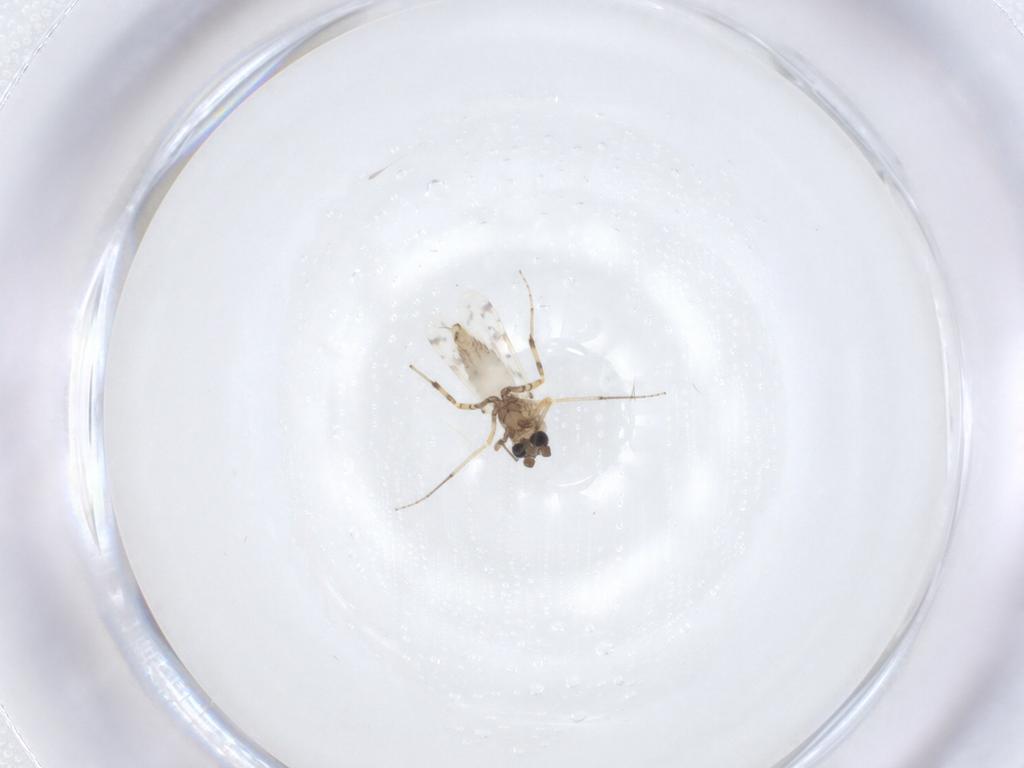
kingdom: Animalia
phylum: Arthropoda
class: Insecta
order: Diptera
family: Ceratopogonidae
